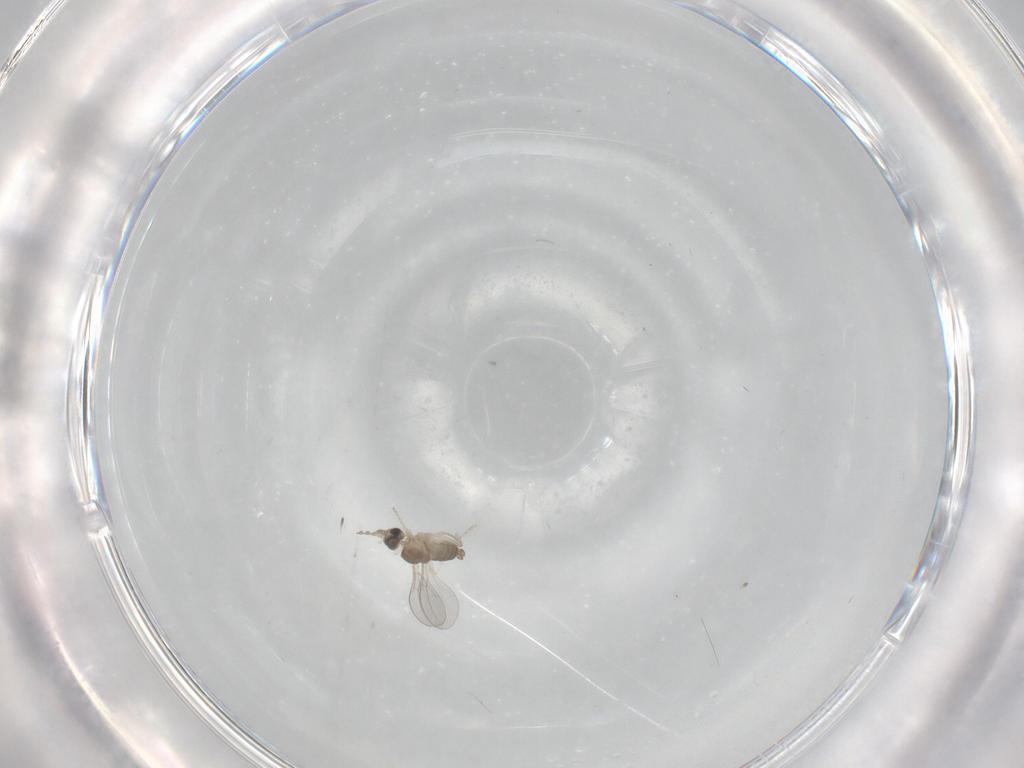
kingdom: Animalia
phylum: Arthropoda
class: Insecta
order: Diptera
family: Cecidomyiidae
